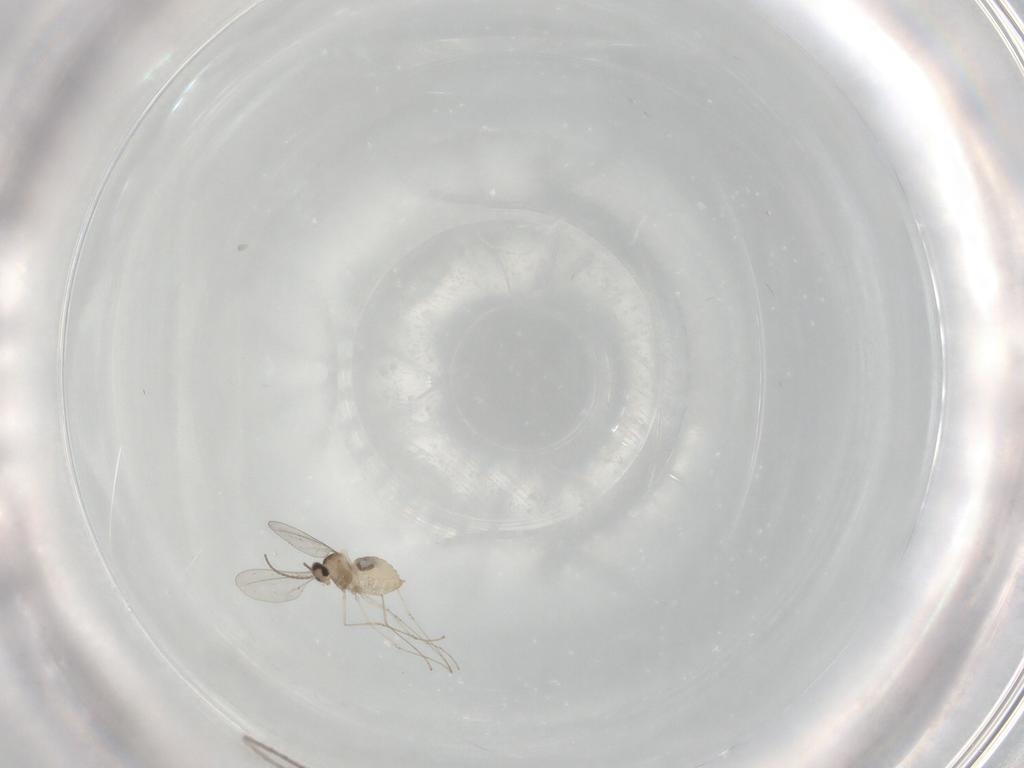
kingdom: Animalia
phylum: Arthropoda
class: Insecta
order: Diptera
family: Cecidomyiidae
